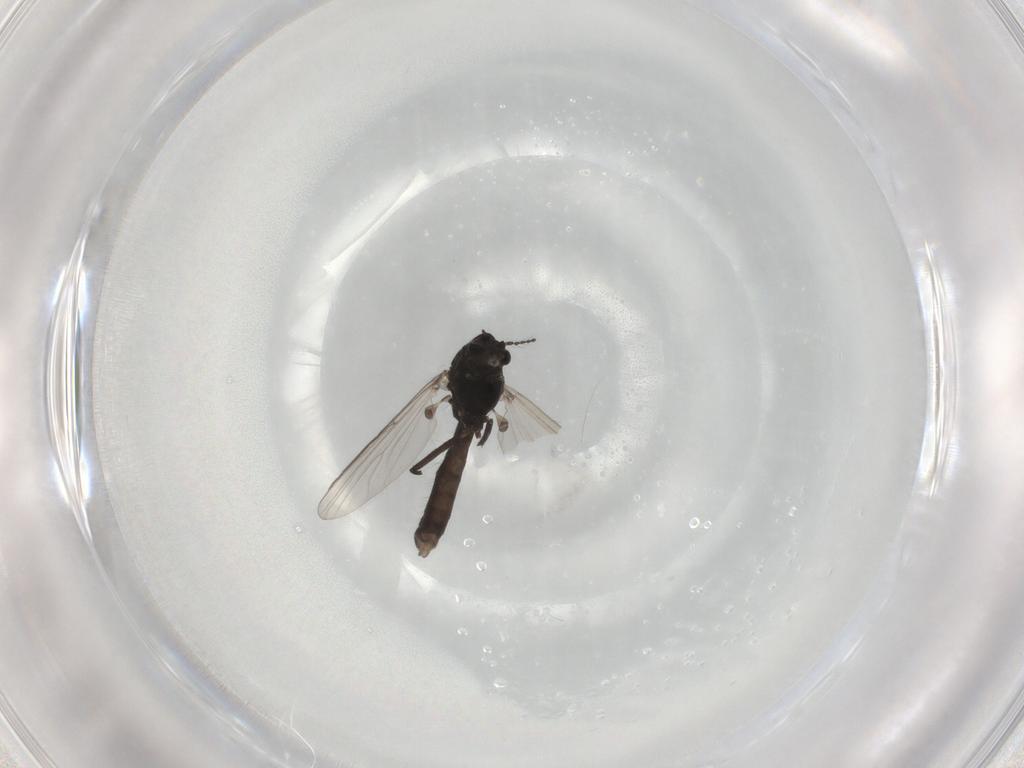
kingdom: Animalia
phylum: Arthropoda
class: Insecta
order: Diptera
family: Chironomidae
